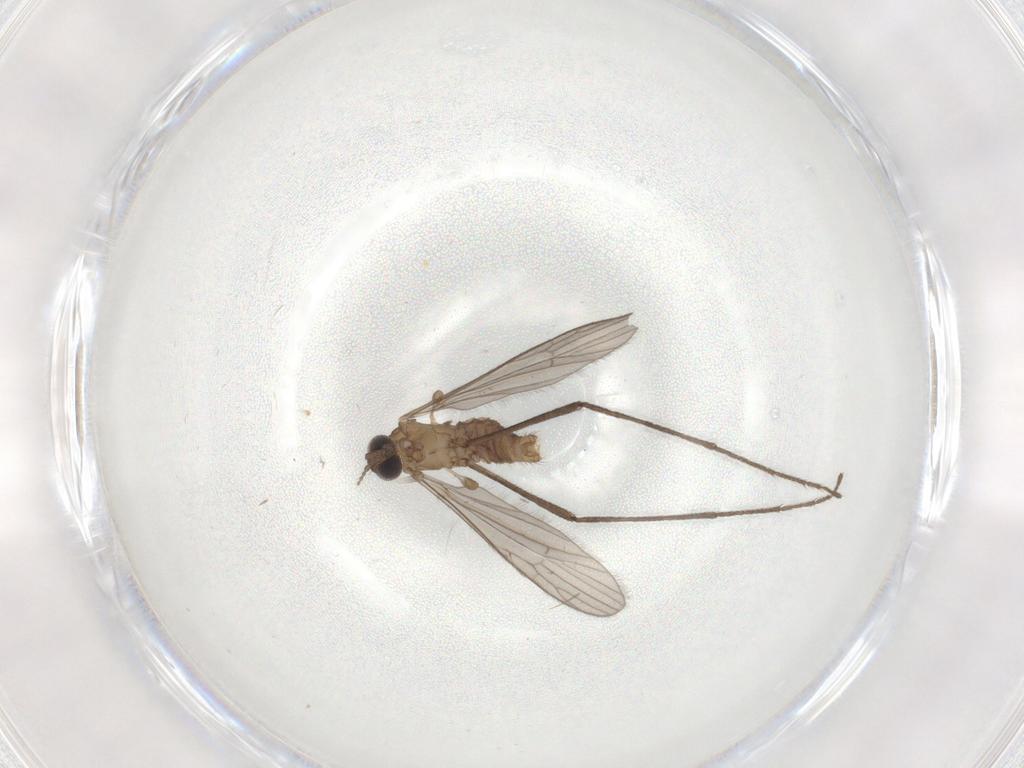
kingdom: Animalia
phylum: Arthropoda
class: Insecta
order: Diptera
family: Limoniidae
